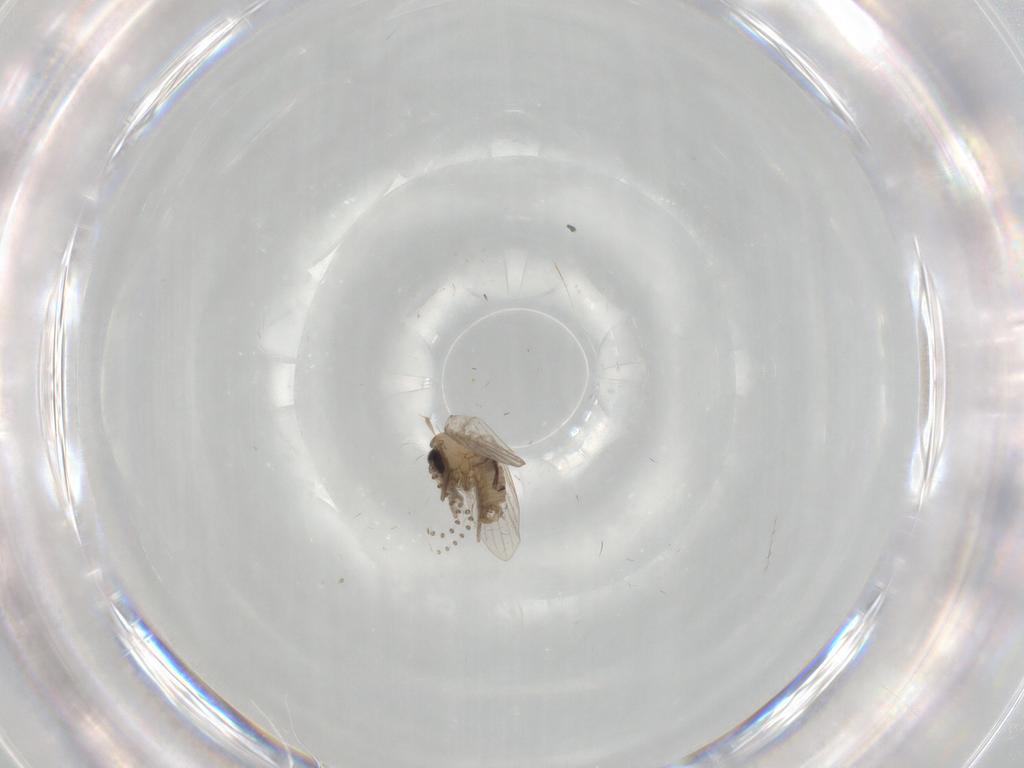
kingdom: Animalia
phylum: Arthropoda
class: Insecta
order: Diptera
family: Psychodidae
